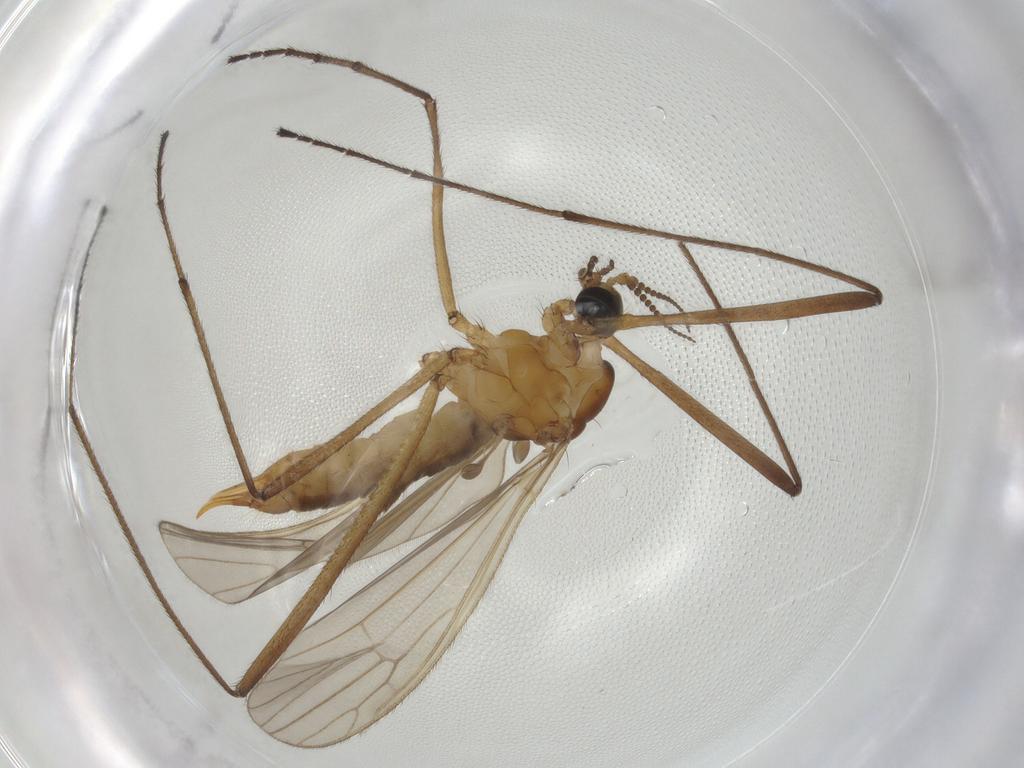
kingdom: Animalia
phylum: Arthropoda
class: Insecta
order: Diptera
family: Limoniidae
